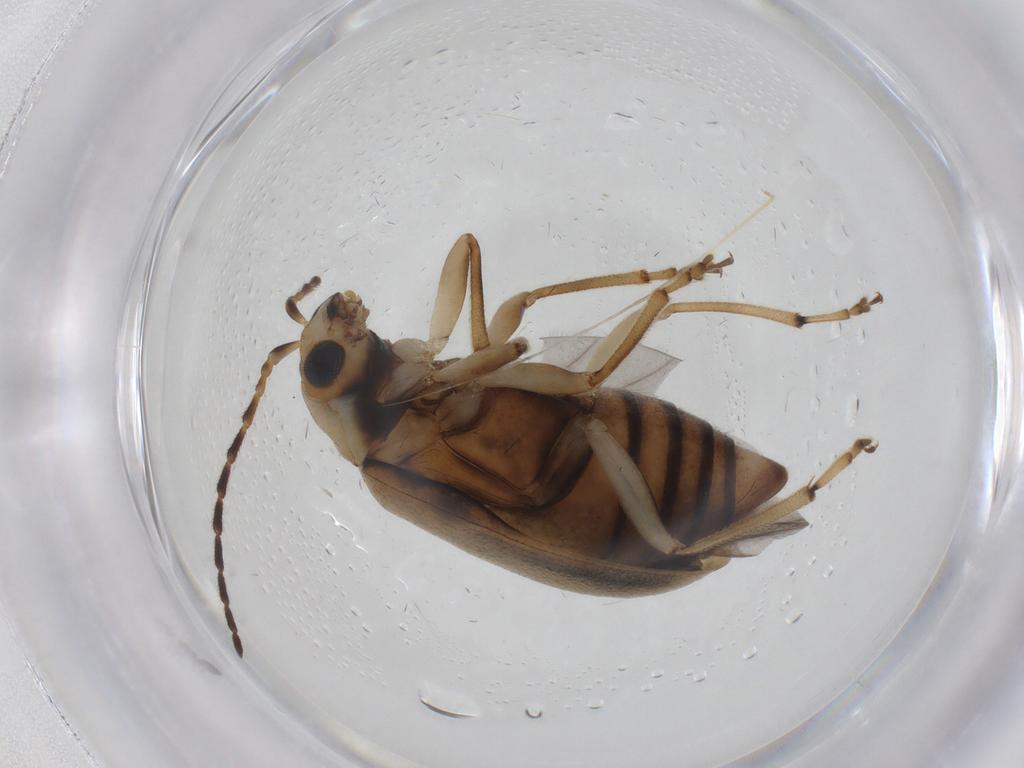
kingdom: Animalia
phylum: Arthropoda
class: Insecta
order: Coleoptera
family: Chrysomelidae
